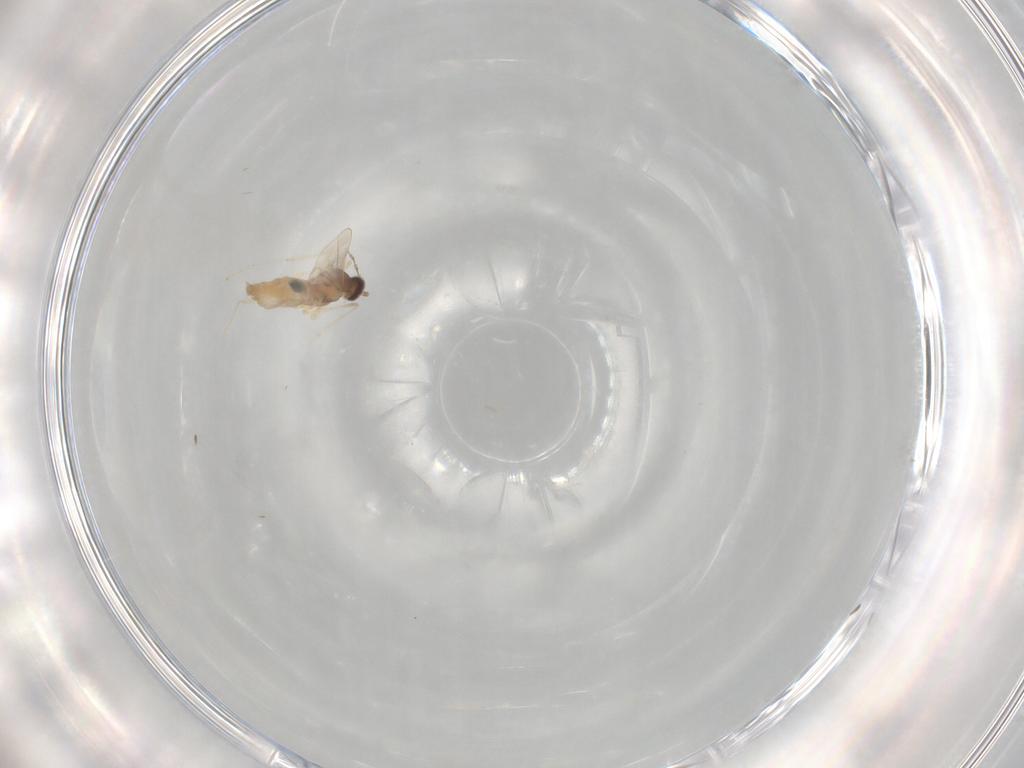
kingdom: Animalia
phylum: Arthropoda
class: Insecta
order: Diptera
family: Cecidomyiidae
